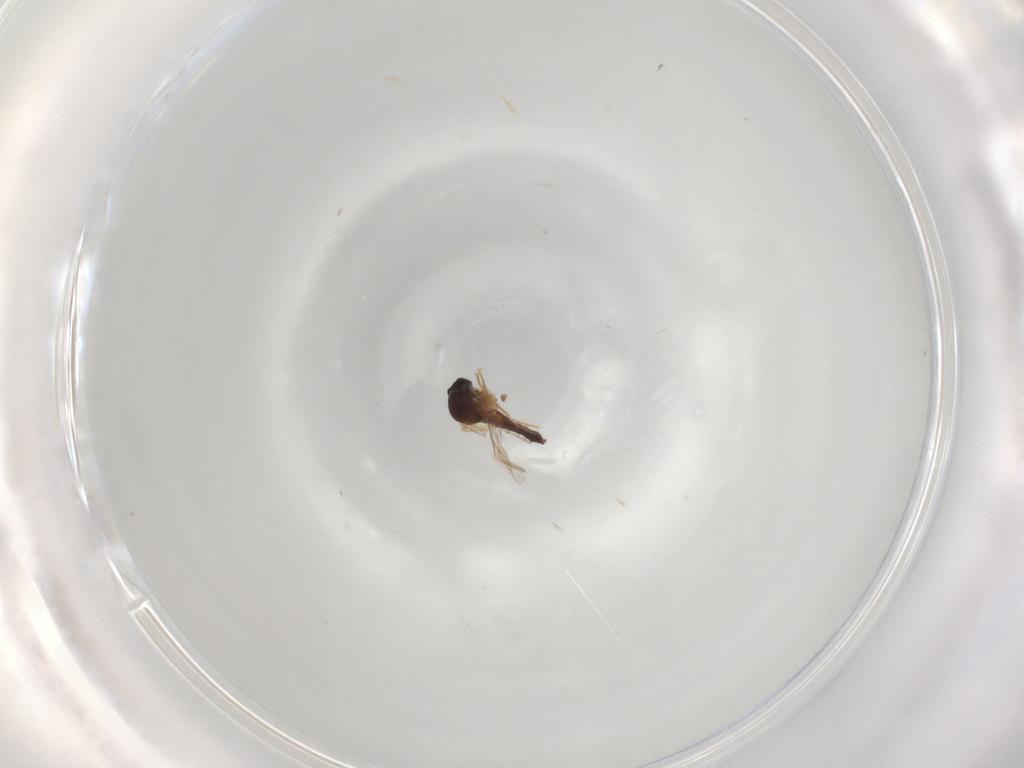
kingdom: Animalia
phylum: Arthropoda
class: Insecta
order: Diptera
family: Ceratopogonidae
